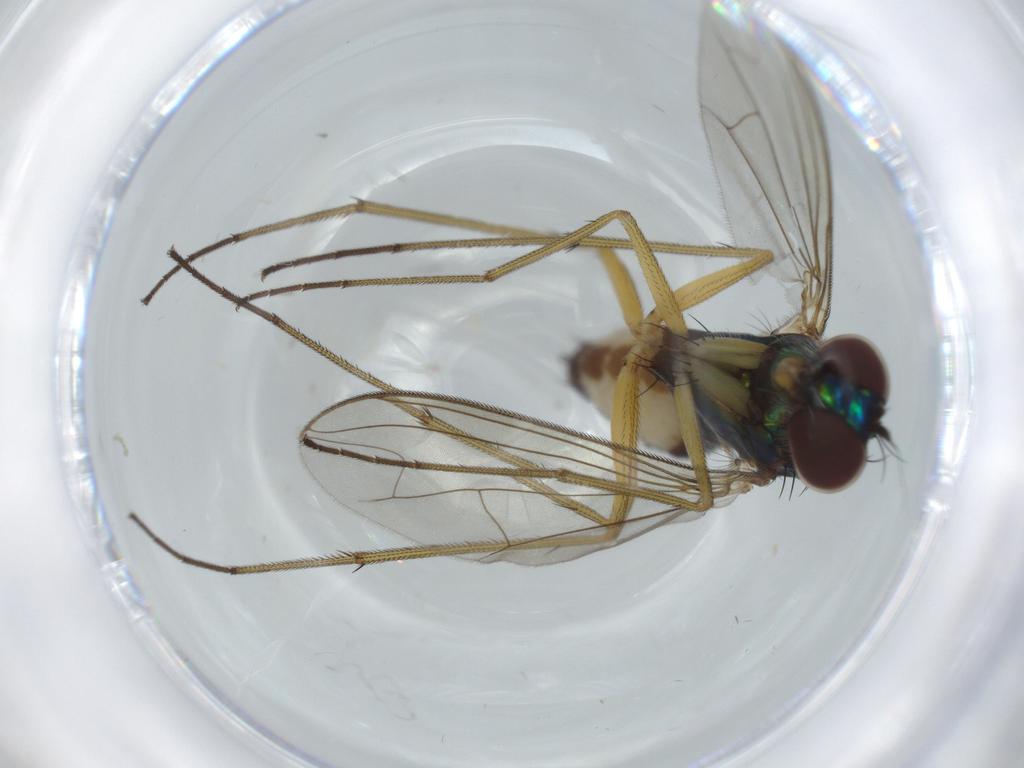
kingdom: Animalia
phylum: Arthropoda
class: Insecta
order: Diptera
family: Dolichopodidae
